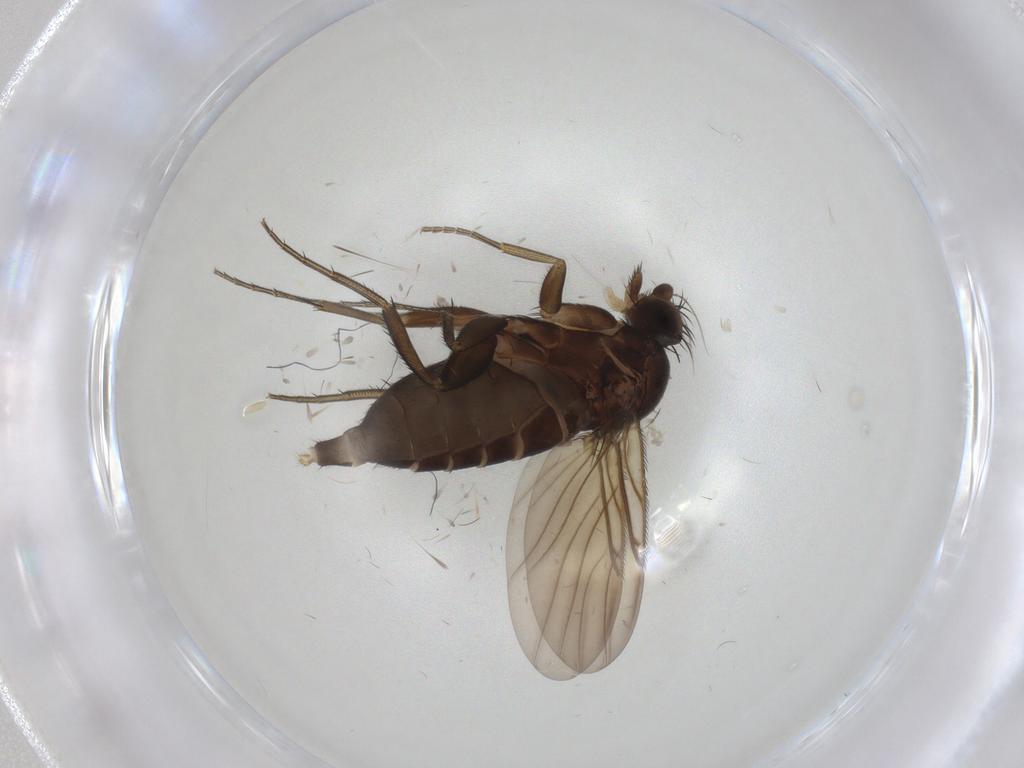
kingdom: Animalia
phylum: Arthropoda
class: Insecta
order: Diptera
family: Phoridae
